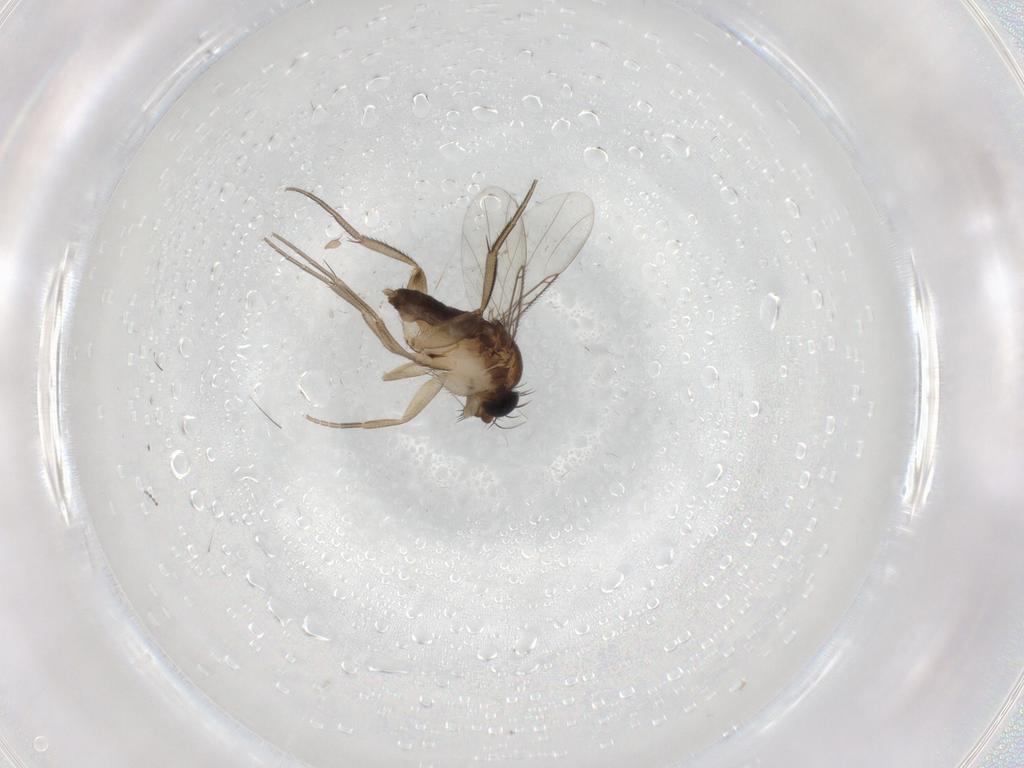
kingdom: Animalia
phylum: Arthropoda
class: Insecta
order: Diptera
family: Phoridae
